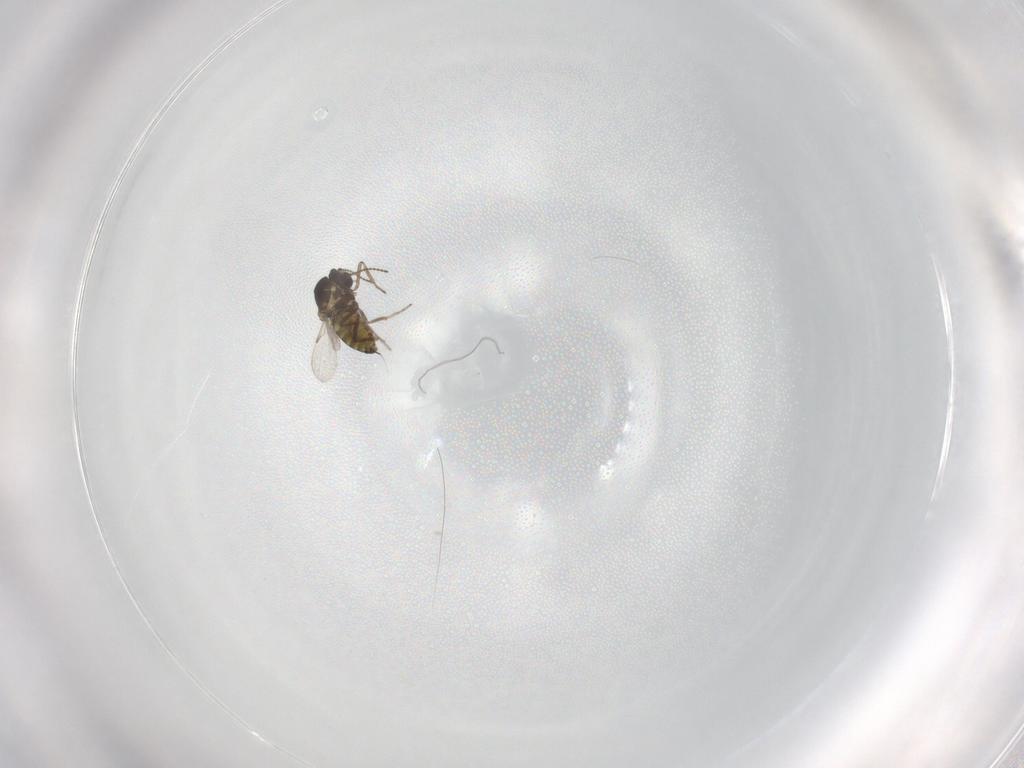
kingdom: Animalia
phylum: Arthropoda
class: Insecta
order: Diptera
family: Ceratopogonidae
